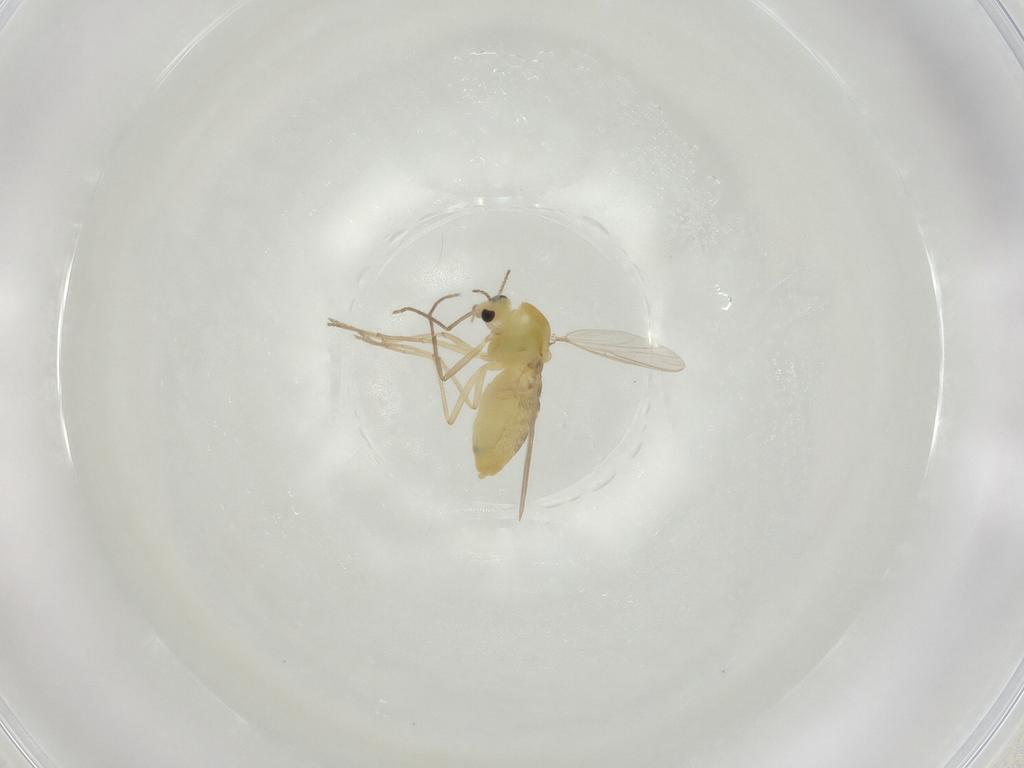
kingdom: Animalia
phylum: Arthropoda
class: Insecta
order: Diptera
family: Chironomidae
